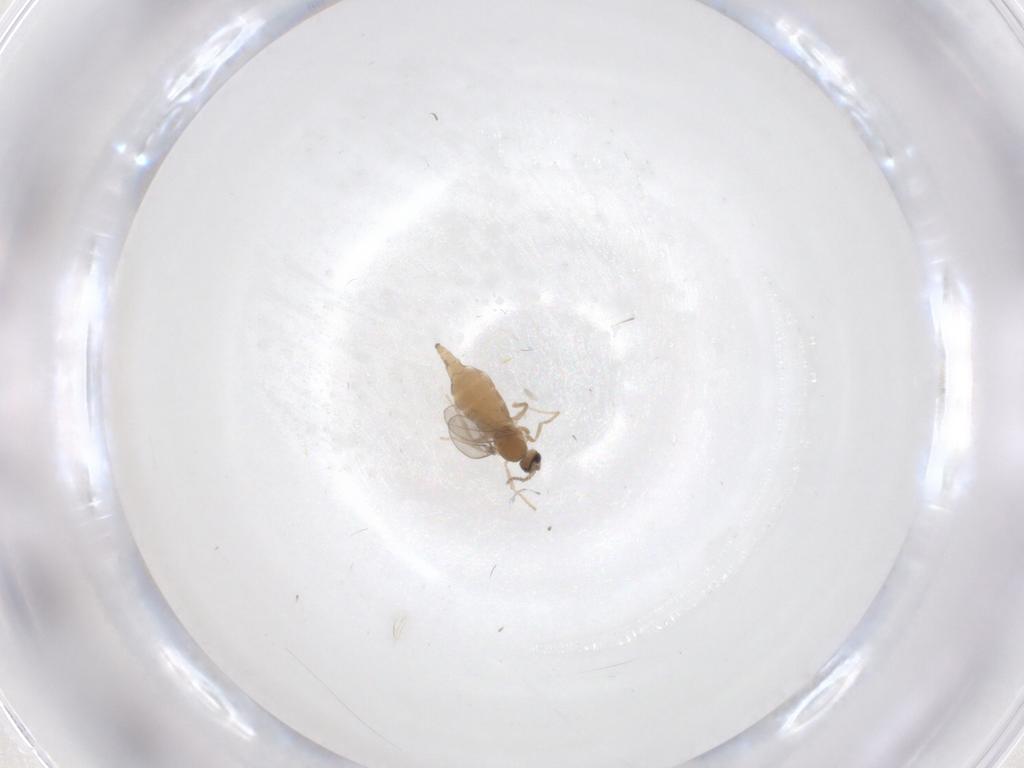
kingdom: Animalia
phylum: Arthropoda
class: Insecta
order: Diptera
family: Cecidomyiidae
